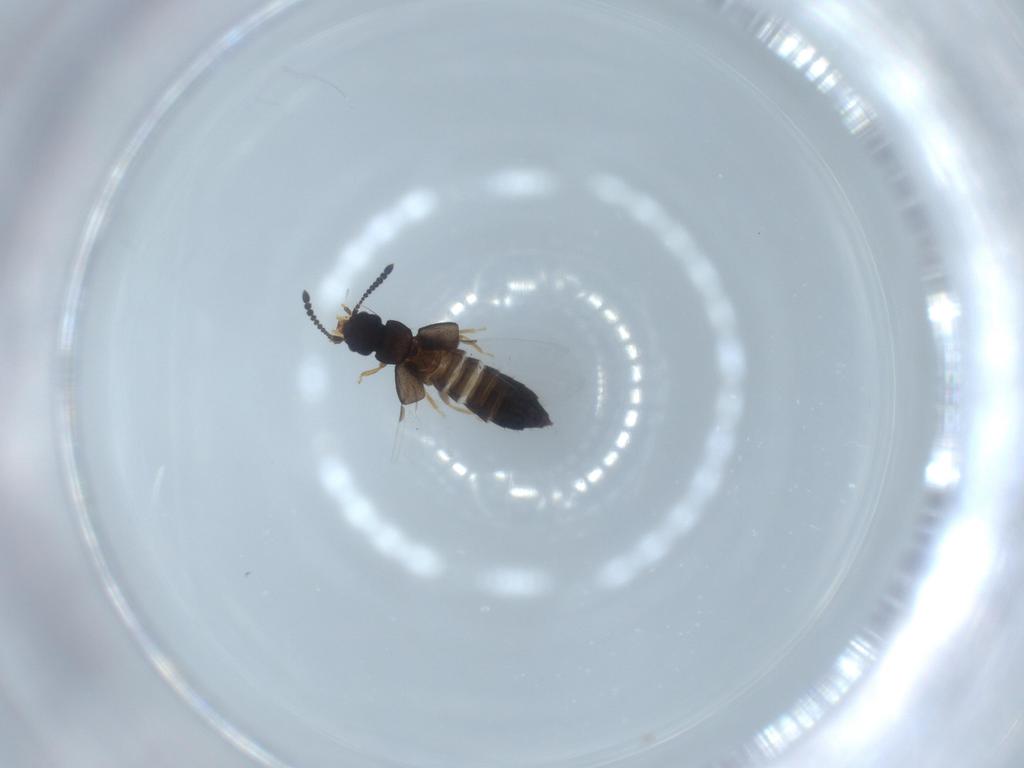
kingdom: Animalia
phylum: Arthropoda
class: Insecta
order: Coleoptera
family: Staphylinidae
